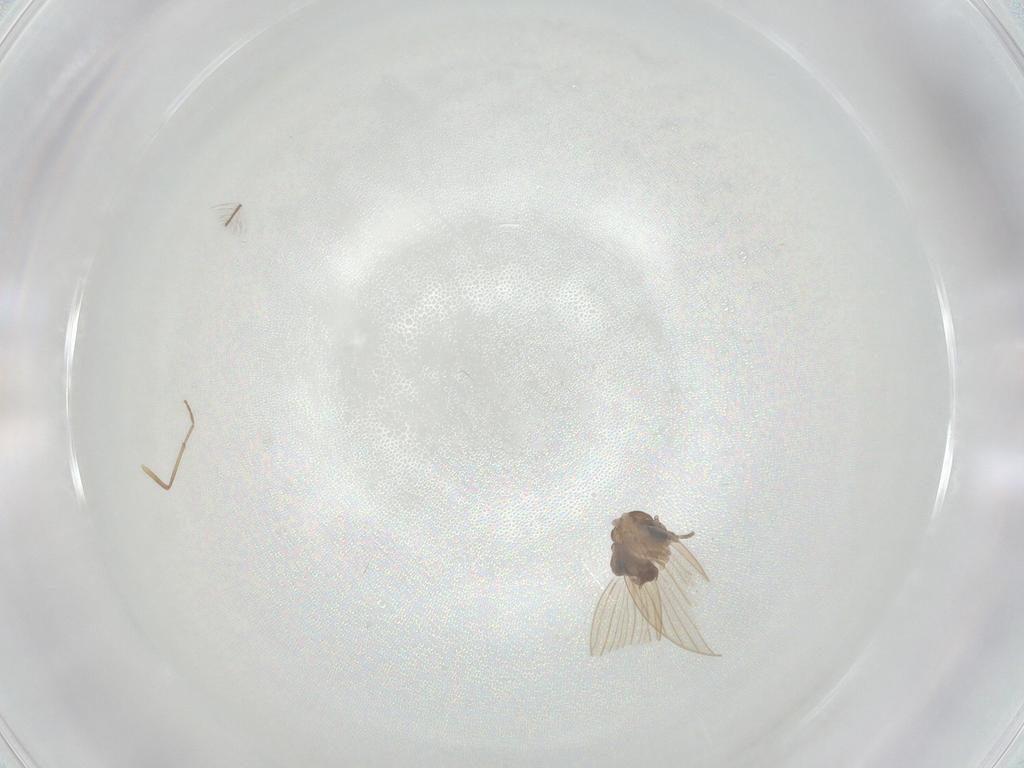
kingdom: Animalia
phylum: Arthropoda
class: Insecta
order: Diptera
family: Psychodidae
